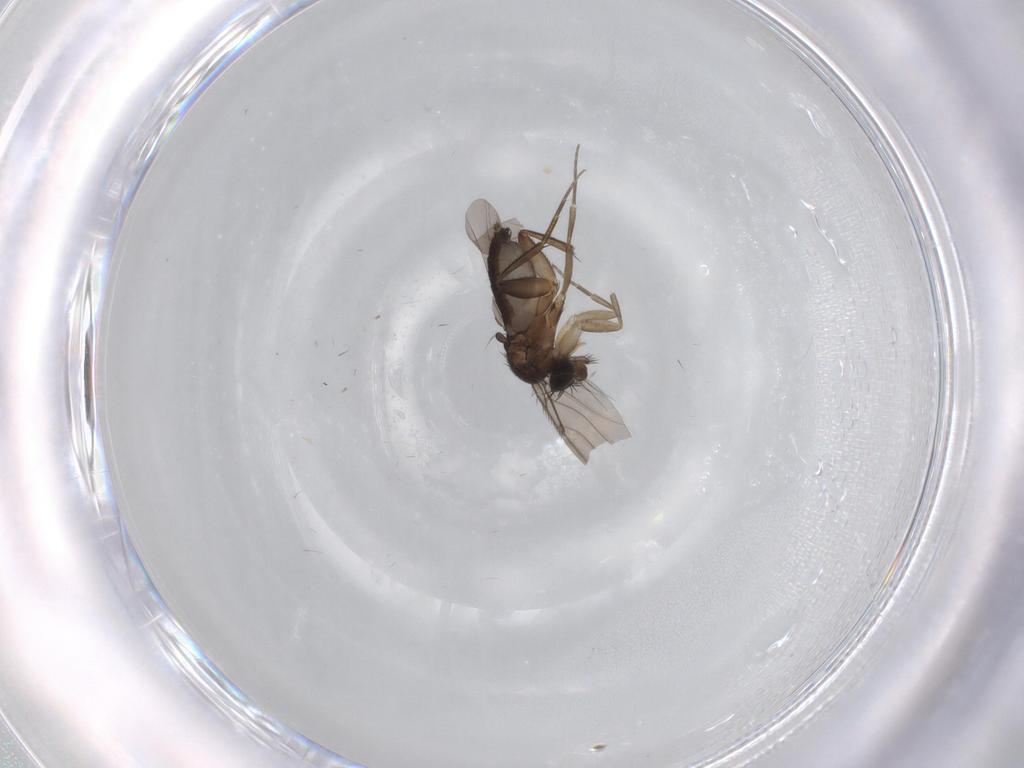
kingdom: Animalia
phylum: Arthropoda
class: Insecta
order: Diptera
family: Phoridae
